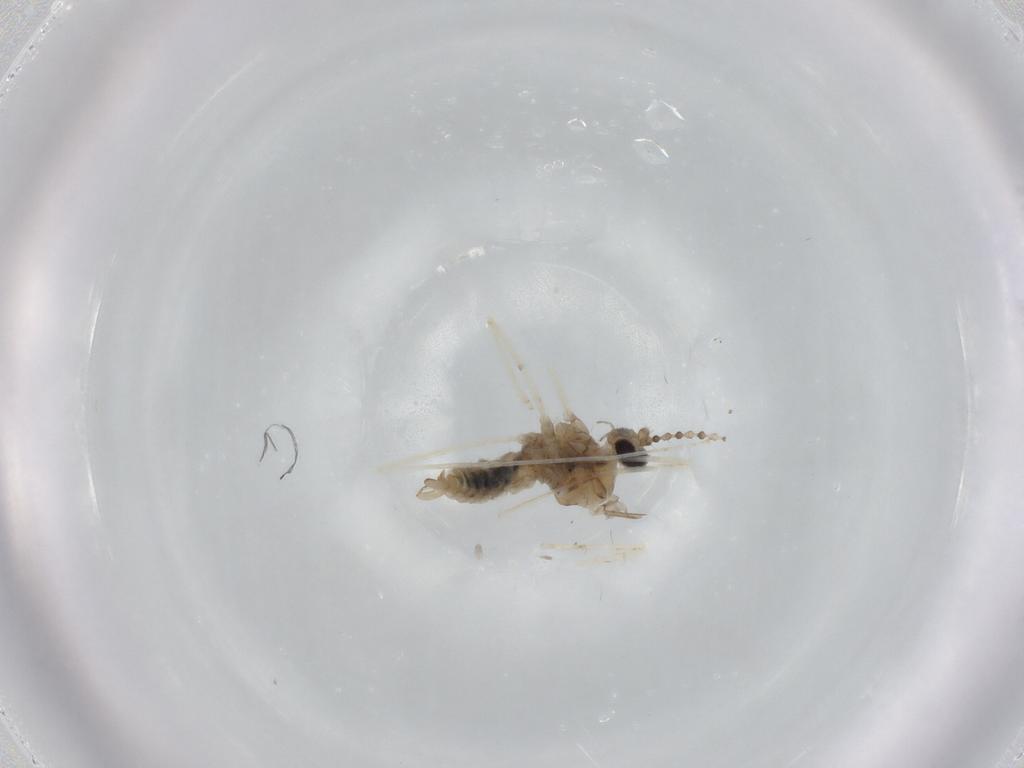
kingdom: Animalia
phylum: Arthropoda
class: Insecta
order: Diptera
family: Cecidomyiidae
